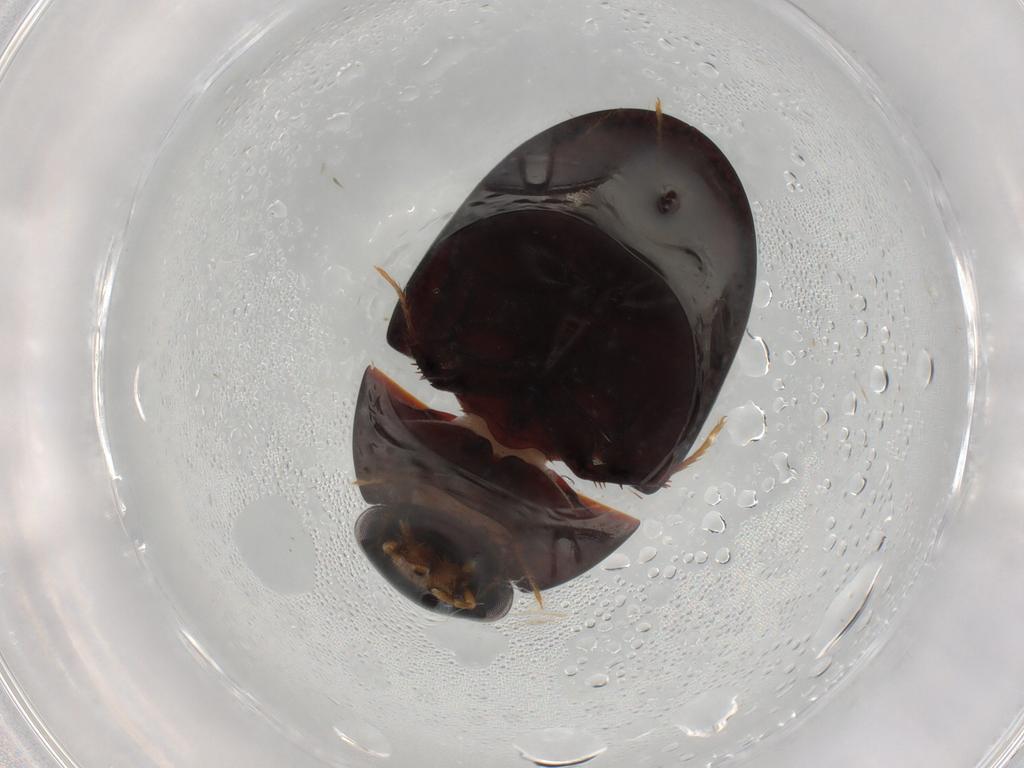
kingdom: Animalia
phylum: Arthropoda
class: Insecta
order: Coleoptera
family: Hydrophilidae
